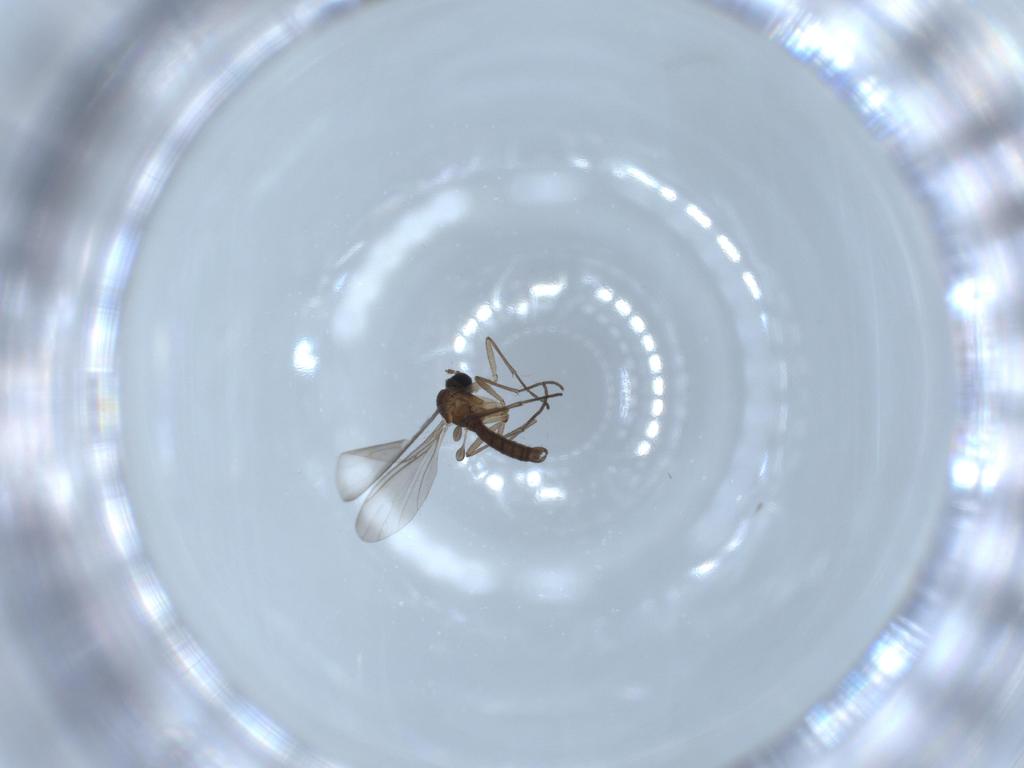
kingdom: Animalia
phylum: Arthropoda
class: Insecta
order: Diptera
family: Sciaridae
